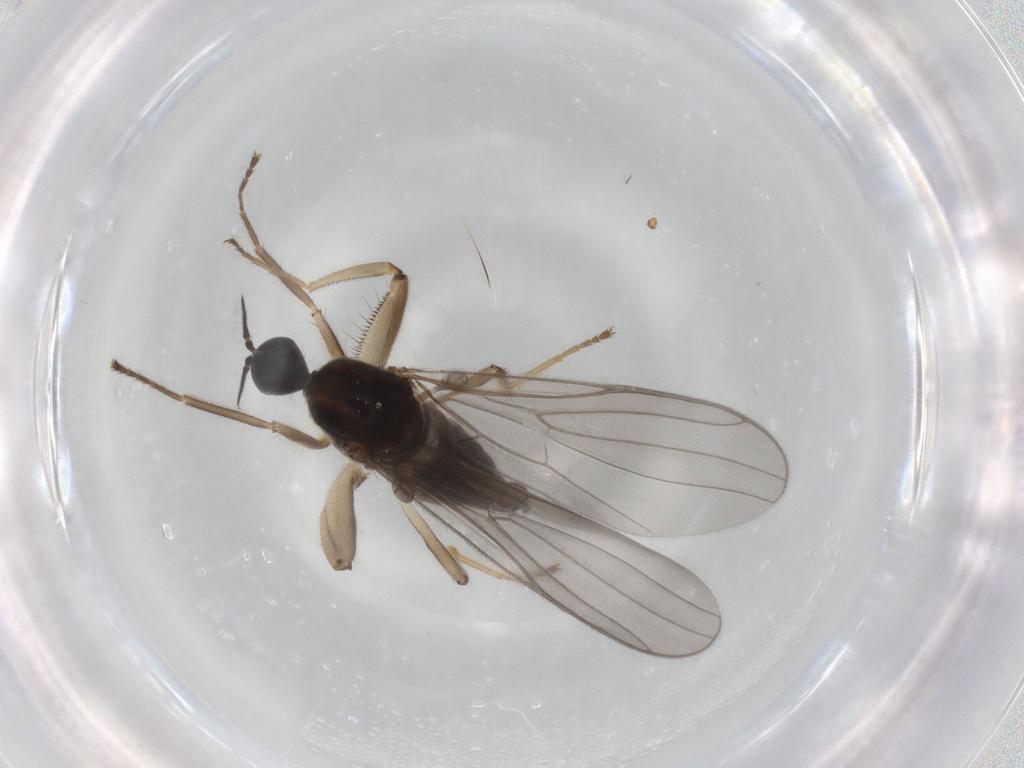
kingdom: Animalia
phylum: Arthropoda
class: Insecta
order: Diptera
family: Hybotidae
